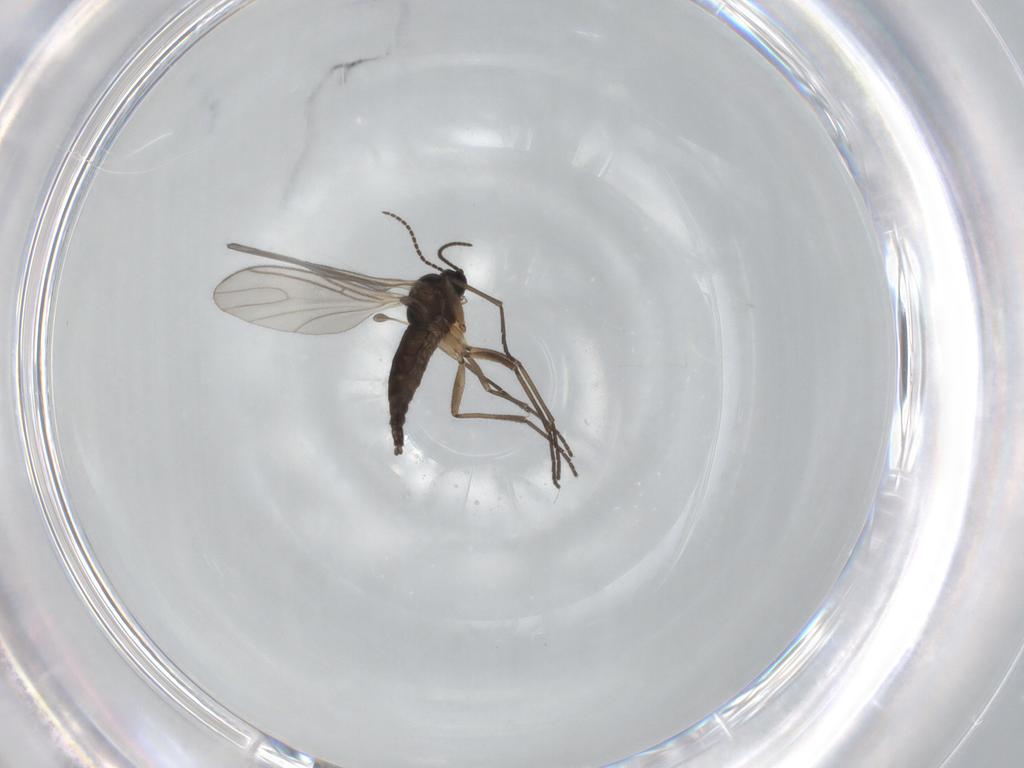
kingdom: Animalia
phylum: Arthropoda
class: Insecta
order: Diptera
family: Sciaridae
